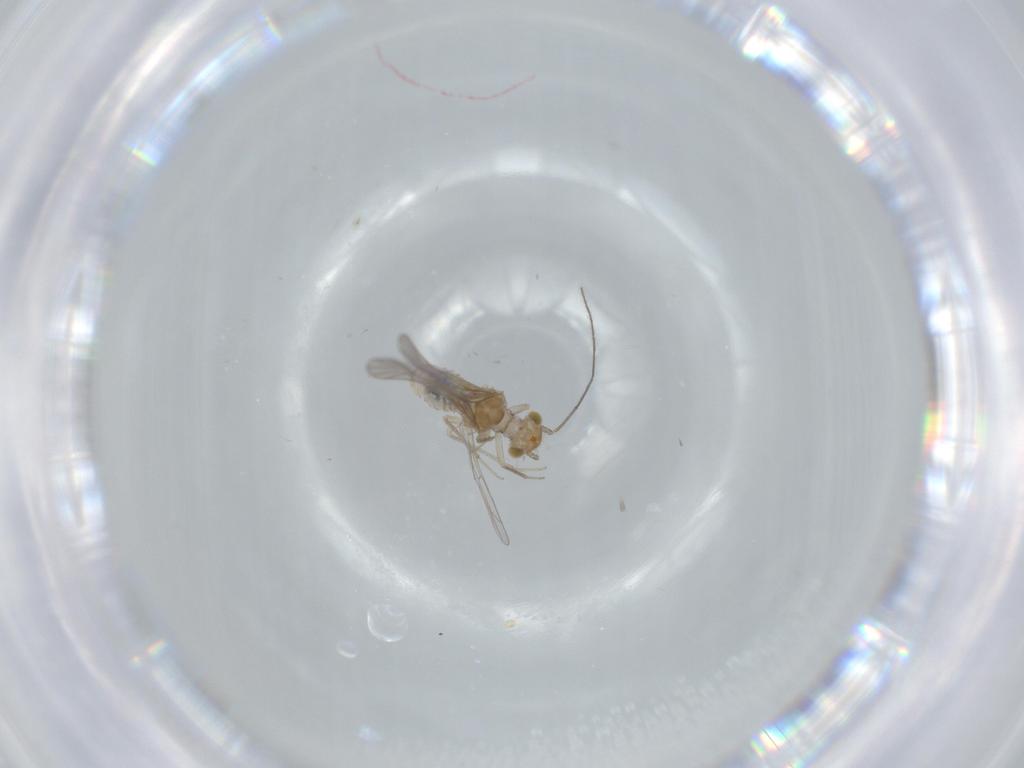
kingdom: Animalia
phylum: Arthropoda
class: Insecta
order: Psocodea
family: Lachesillidae
